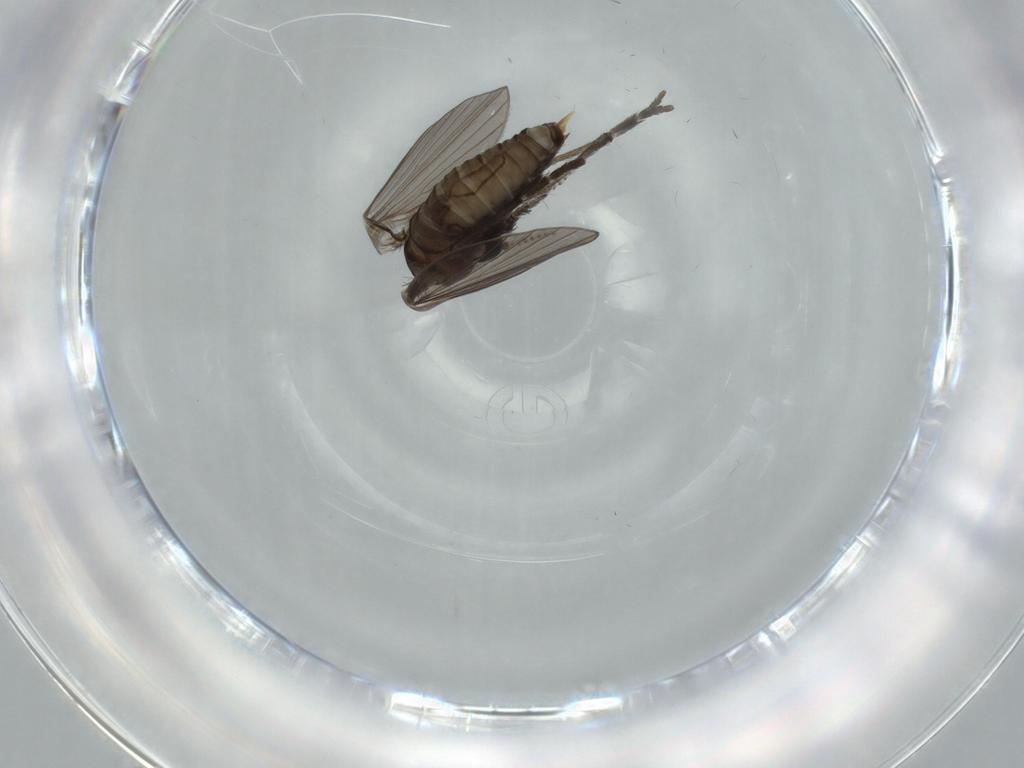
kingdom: Animalia
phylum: Arthropoda
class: Insecta
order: Diptera
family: Psychodidae
